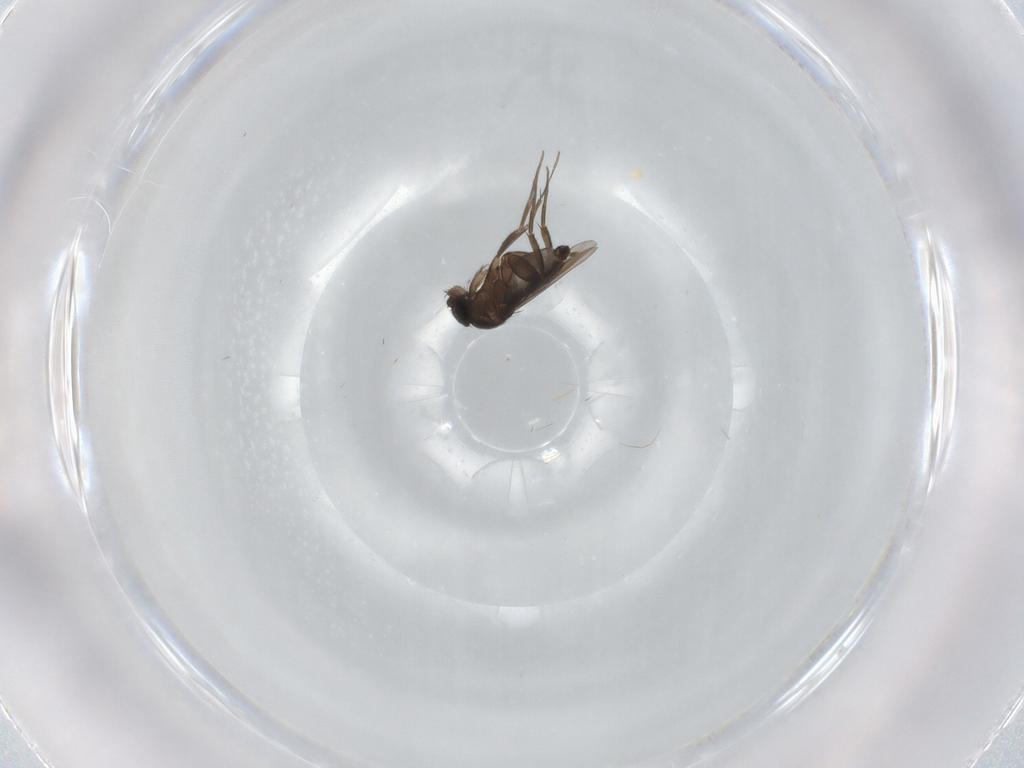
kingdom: Animalia
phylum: Arthropoda
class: Insecta
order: Diptera
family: Phoridae
